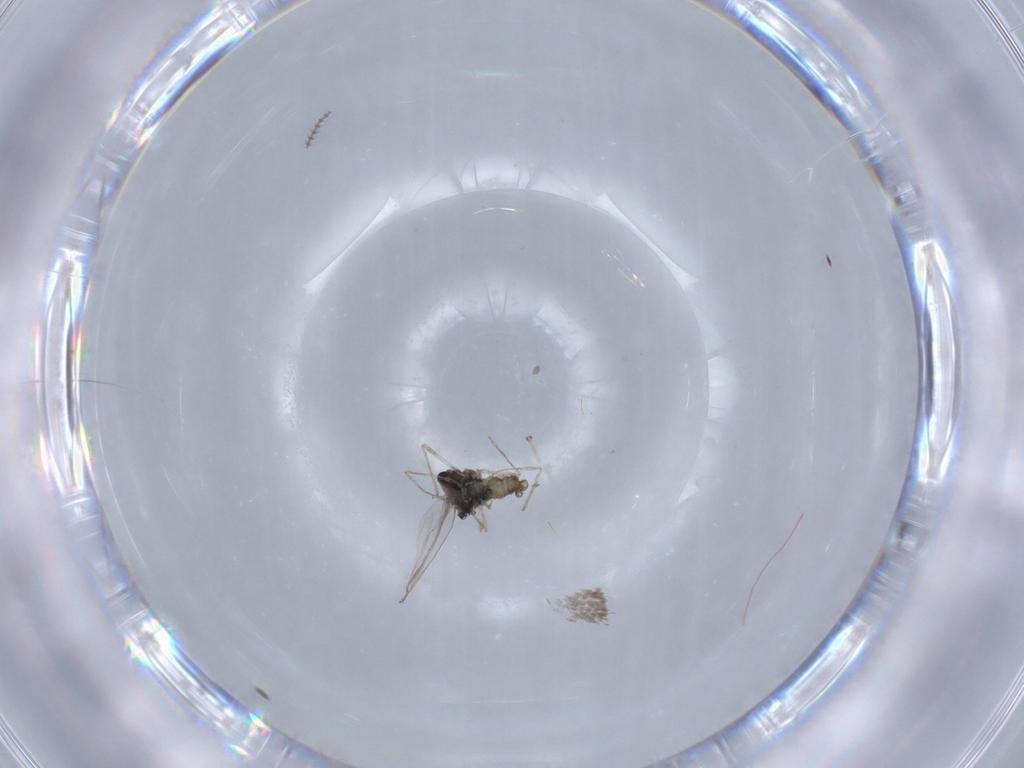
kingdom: Animalia
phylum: Arthropoda
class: Insecta
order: Diptera
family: Cecidomyiidae
